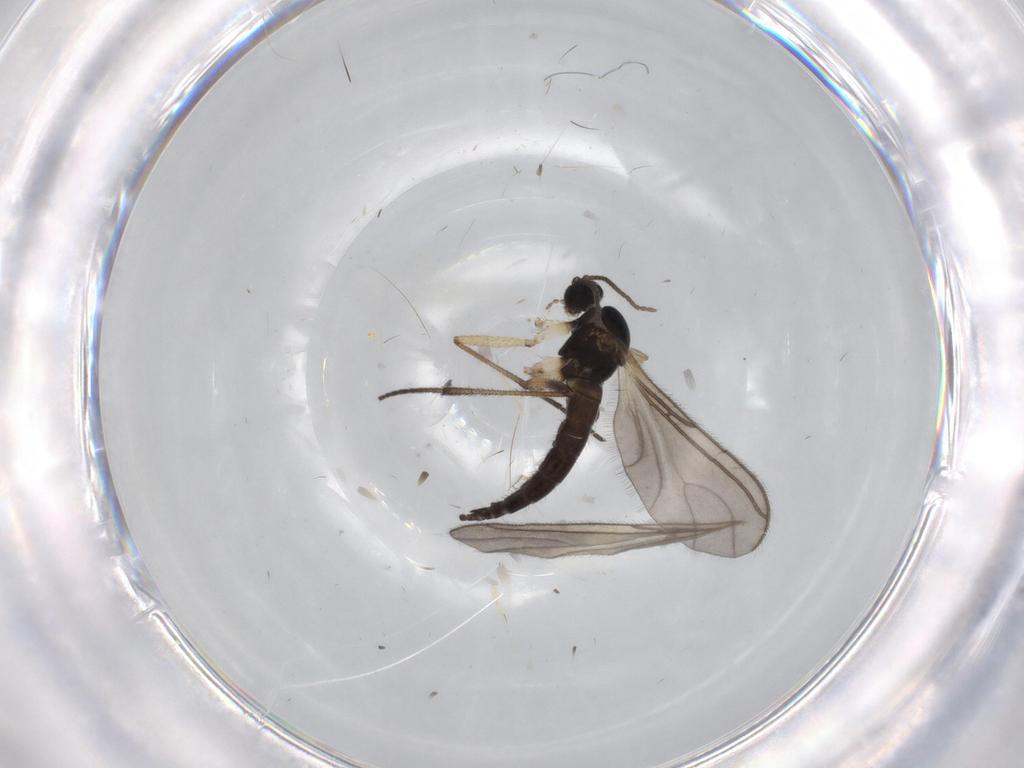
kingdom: Animalia
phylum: Arthropoda
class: Insecta
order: Diptera
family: Sciaridae
